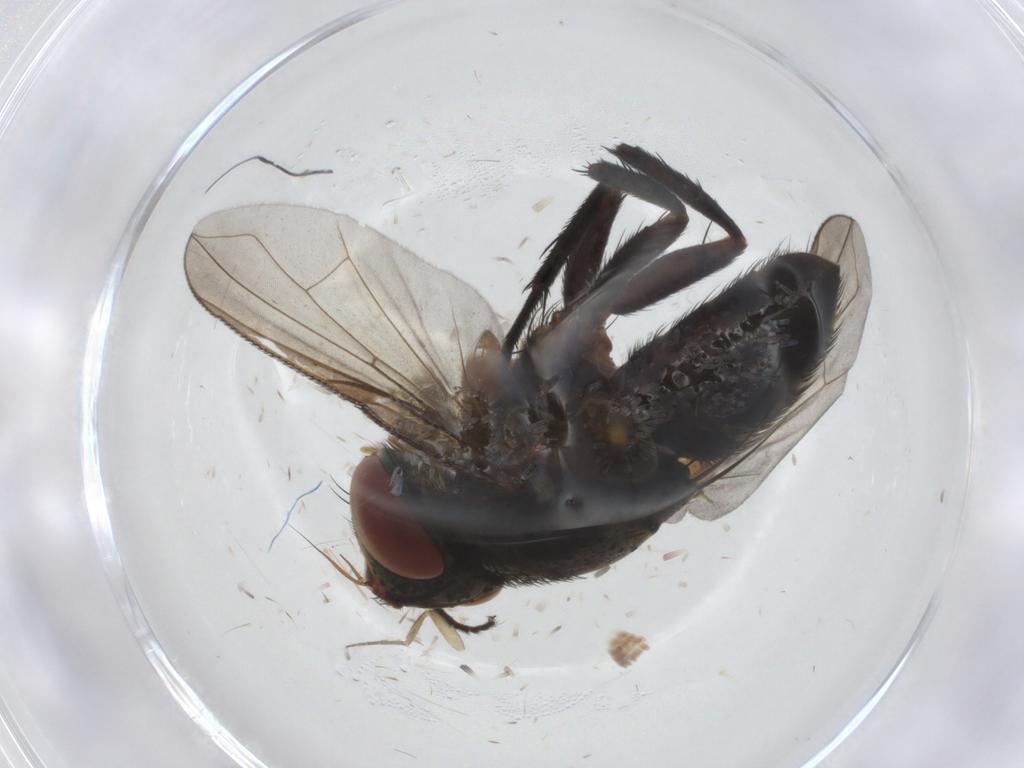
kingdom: Animalia
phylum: Arthropoda
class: Insecta
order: Diptera
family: Tachinidae
